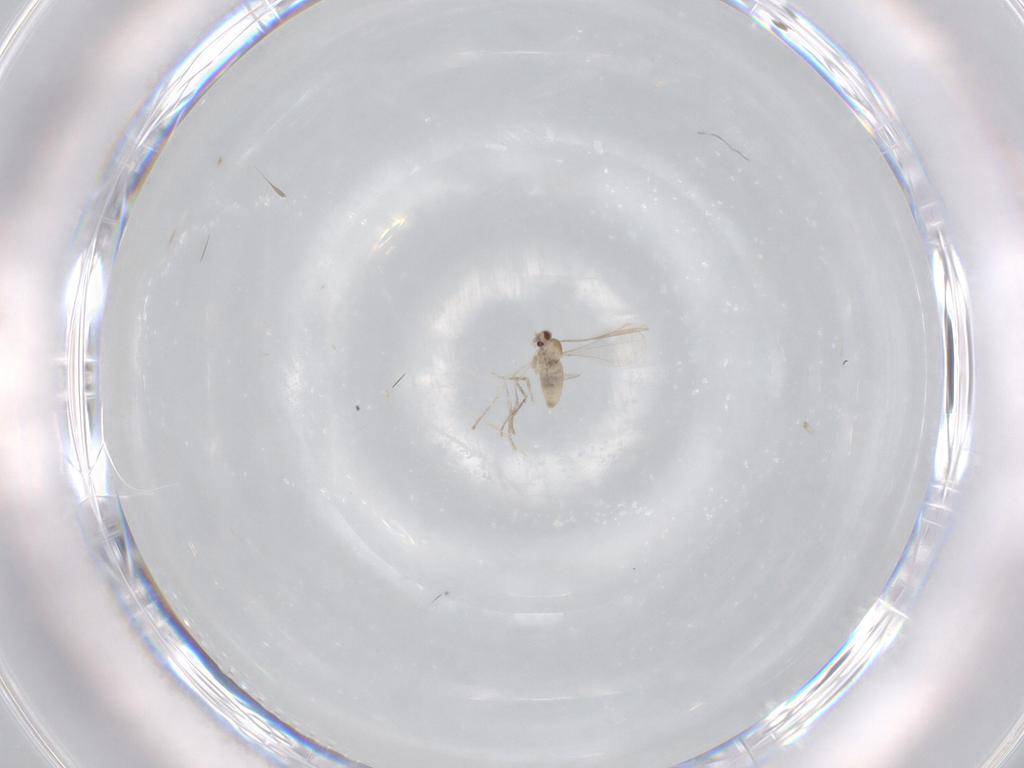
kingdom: Animalia
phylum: Arthropoda
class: Insecta
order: Diptera
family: Cecidomyiidae
